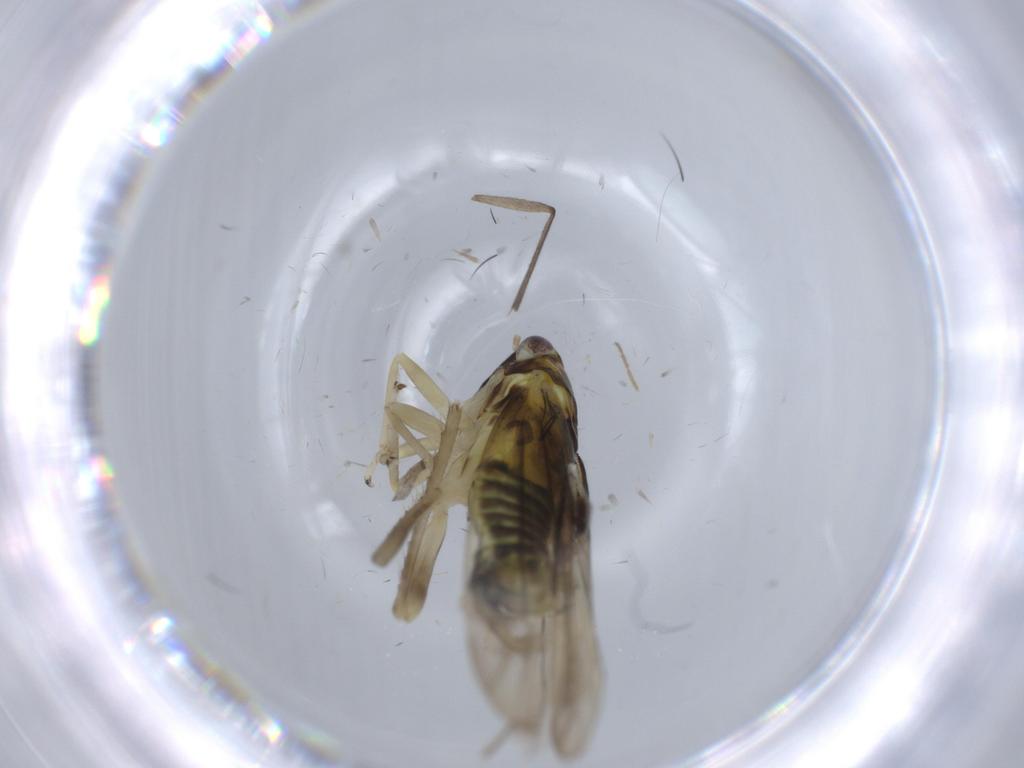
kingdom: Animalia
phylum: Arthropoda
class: Insecta
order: Hemiptera
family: Cicadellidae
